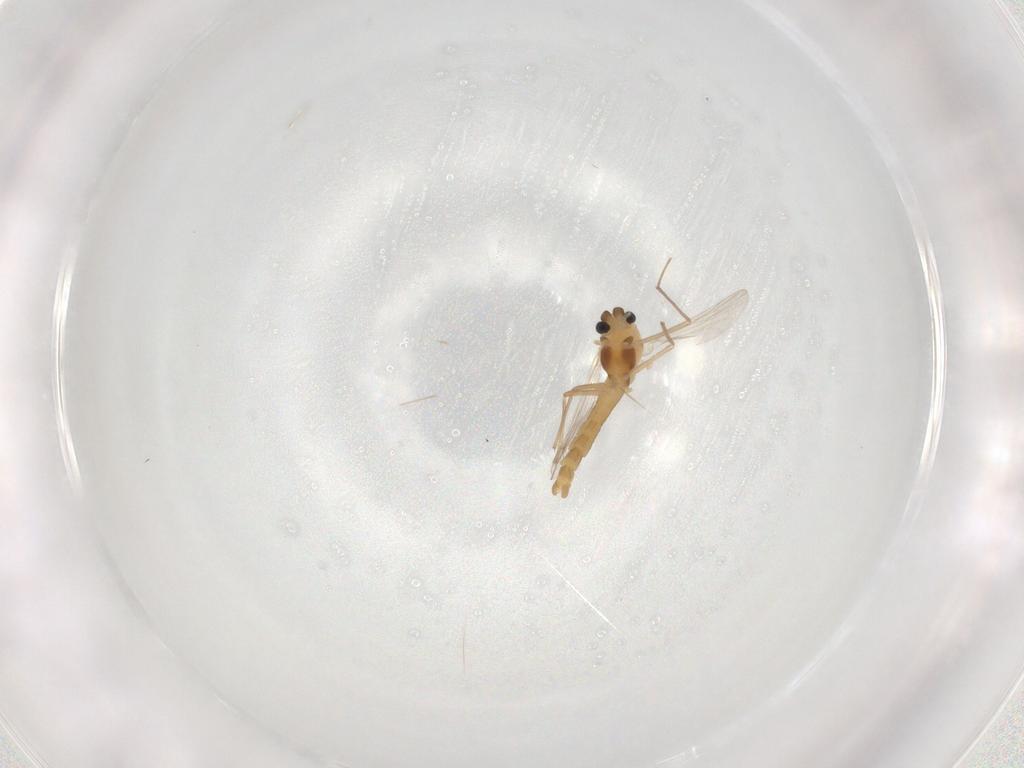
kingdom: Animalia
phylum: Arthropoda
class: Insecta
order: Diptera
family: Chironomidae
